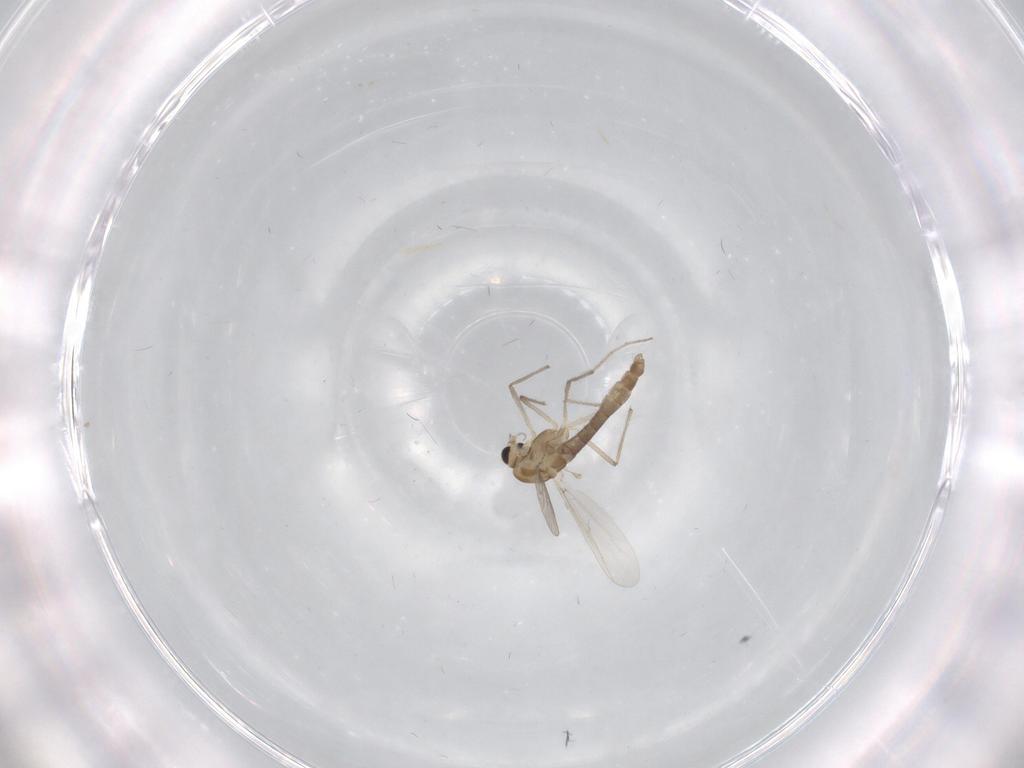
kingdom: Animalia
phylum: Arthropoda
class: Insecta
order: Diptera
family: Chironomidae
